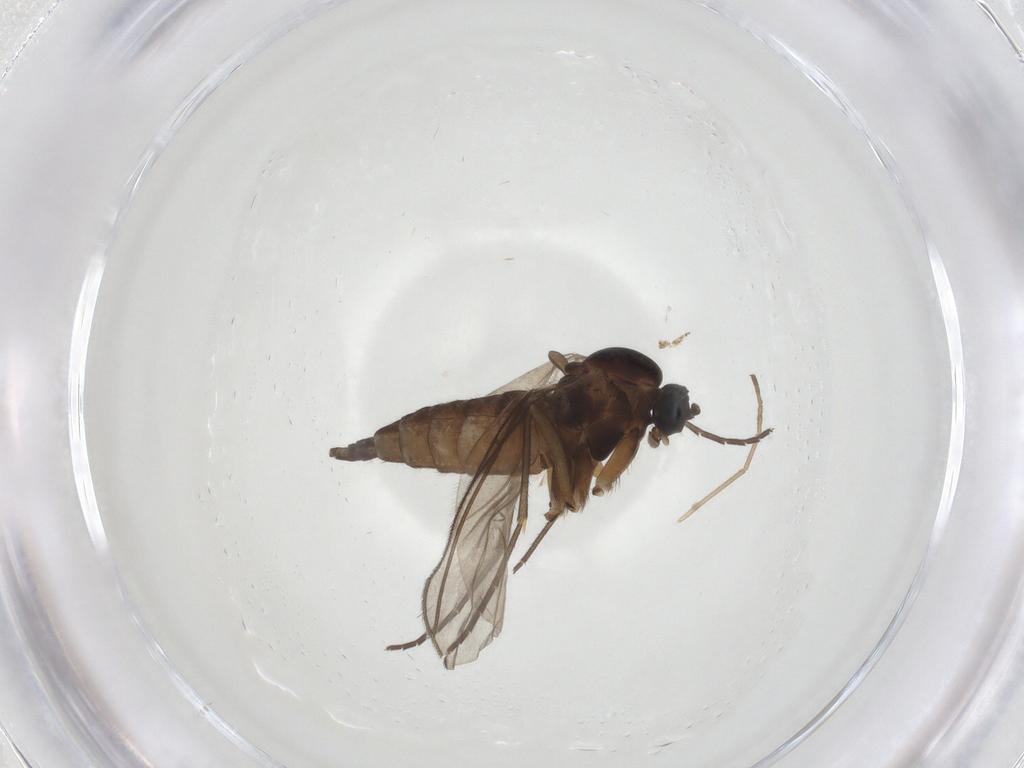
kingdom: Animalia
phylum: Arthropoda
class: Insecta
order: Diptera
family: Sciaridae
